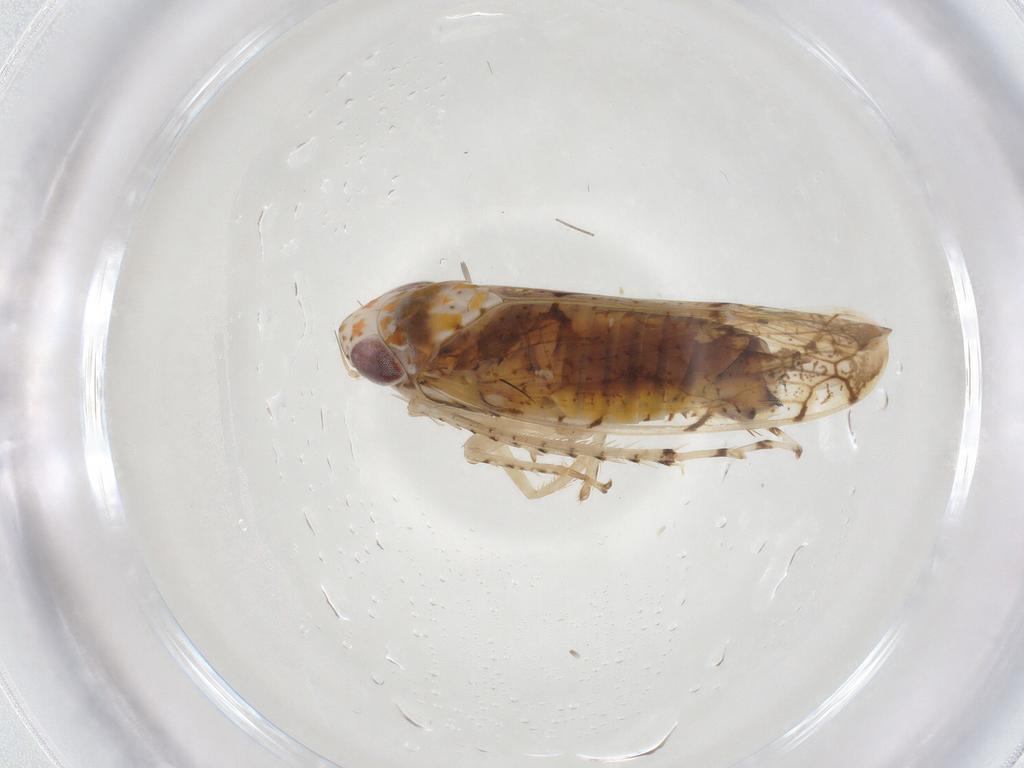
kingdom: Animalia
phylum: Arthropoda
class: Insecta
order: Hemiptera
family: Cicadellidae
